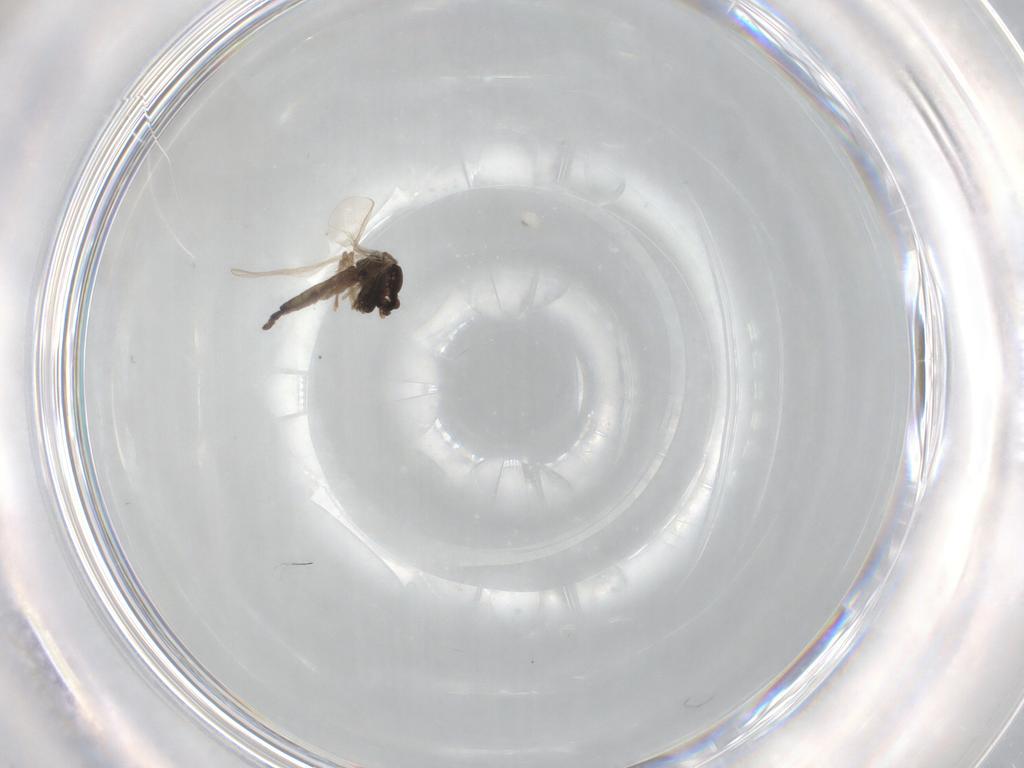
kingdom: Animalia
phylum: Arthropoda
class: Insecta
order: Diptera
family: Chironomidae
